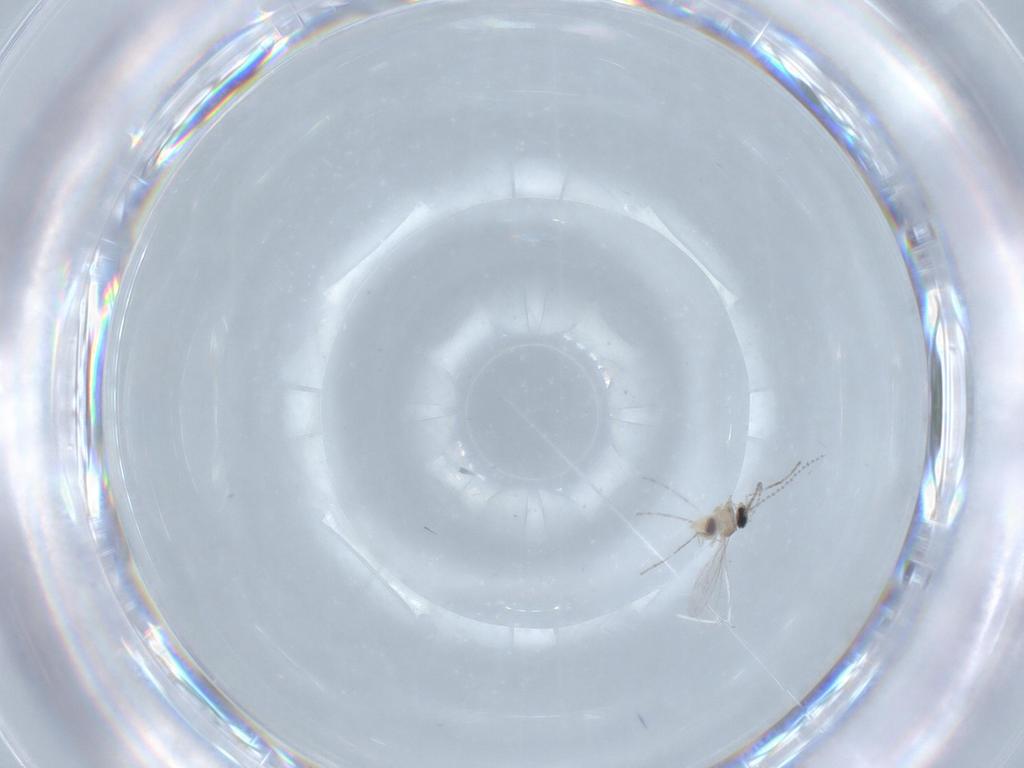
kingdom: Animalia
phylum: Arthropoda
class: Insecta
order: Diptera
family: Cecidomyiidae
